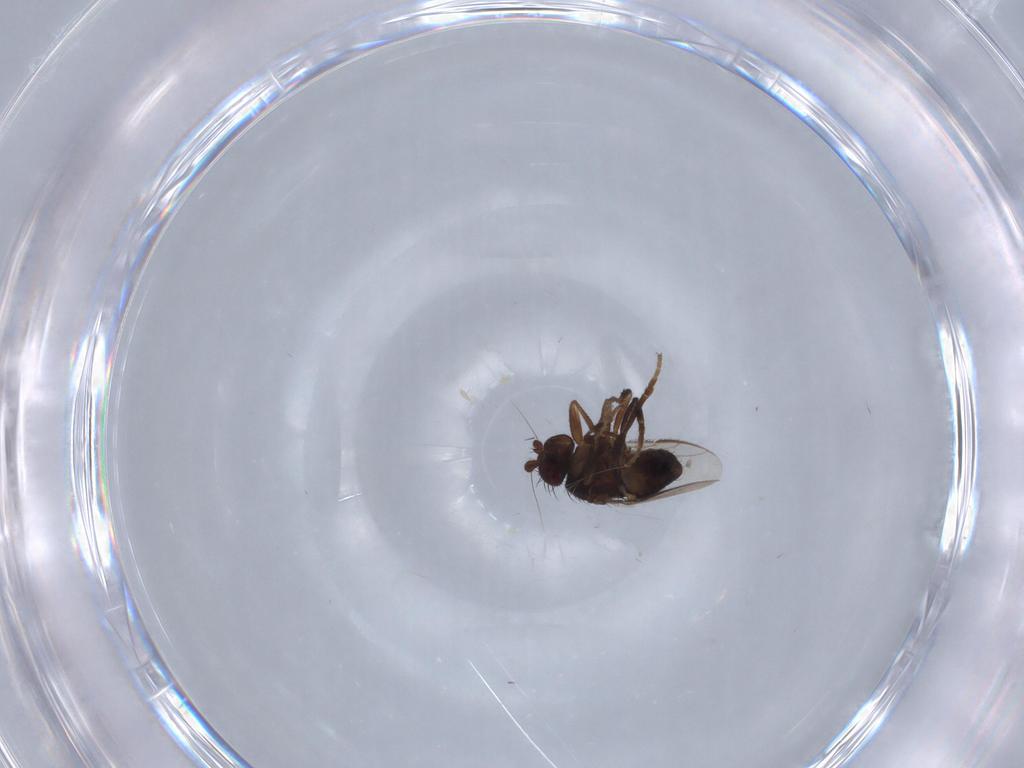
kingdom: Animalia
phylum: Arthropoda
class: Insecta
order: Diptera
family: Sphaeroceridae
